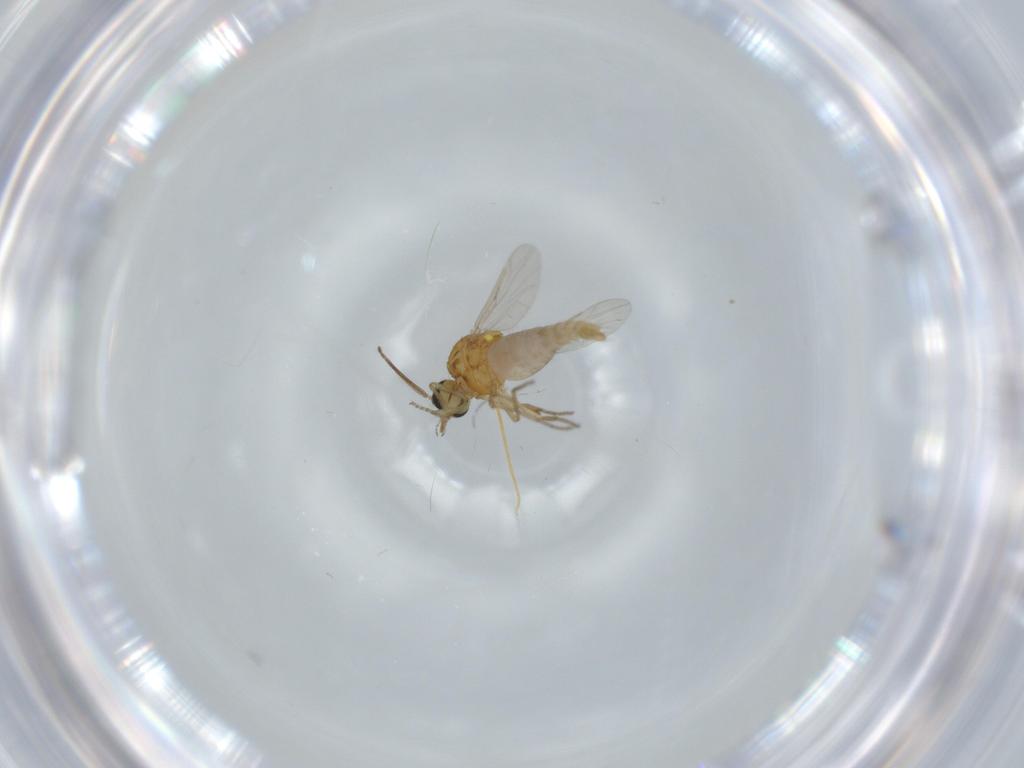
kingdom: Animalia
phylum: Arthropoda
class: Insecta
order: Diptera
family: Ceratopogonidae
